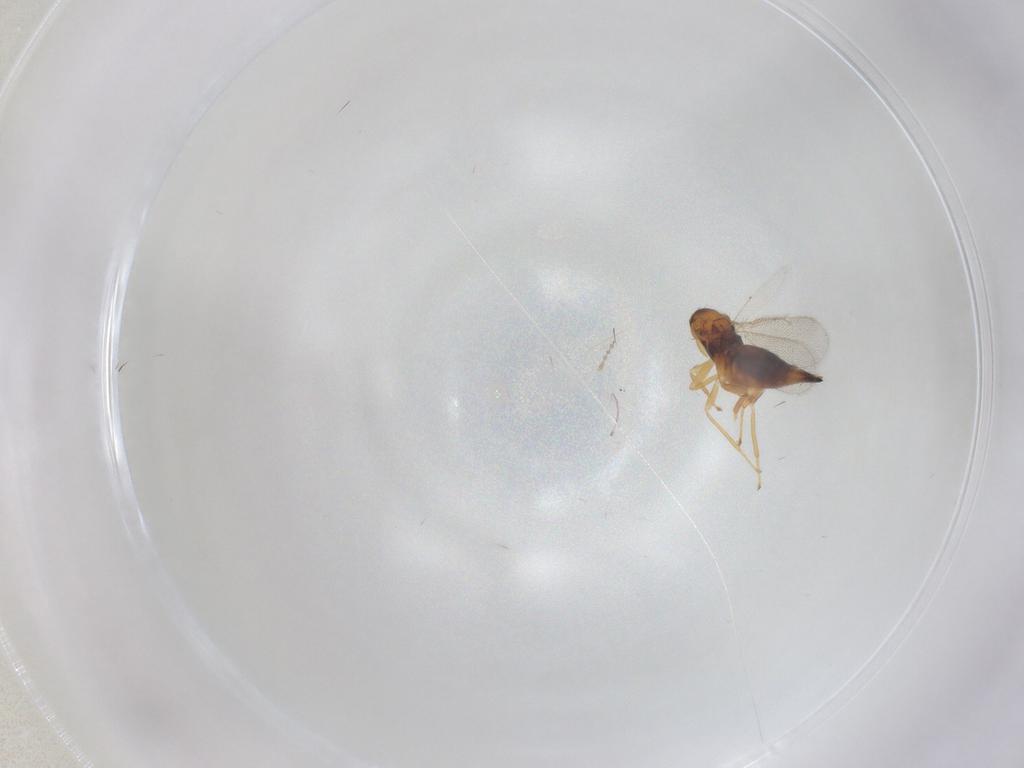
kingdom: Animalia
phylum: Arthropoda
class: Insecta
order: Hymenoptera
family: Eulophidae
